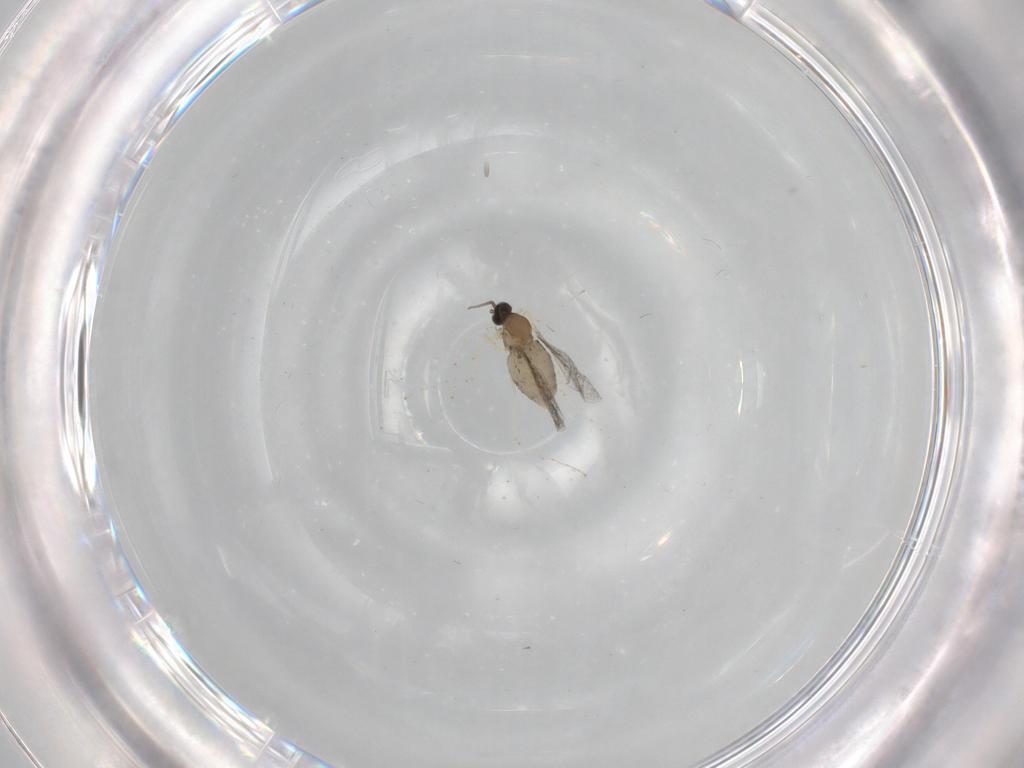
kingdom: Animalia
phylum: Arthropoda
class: Insecta
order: Diptera
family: Cecidomyiidae
